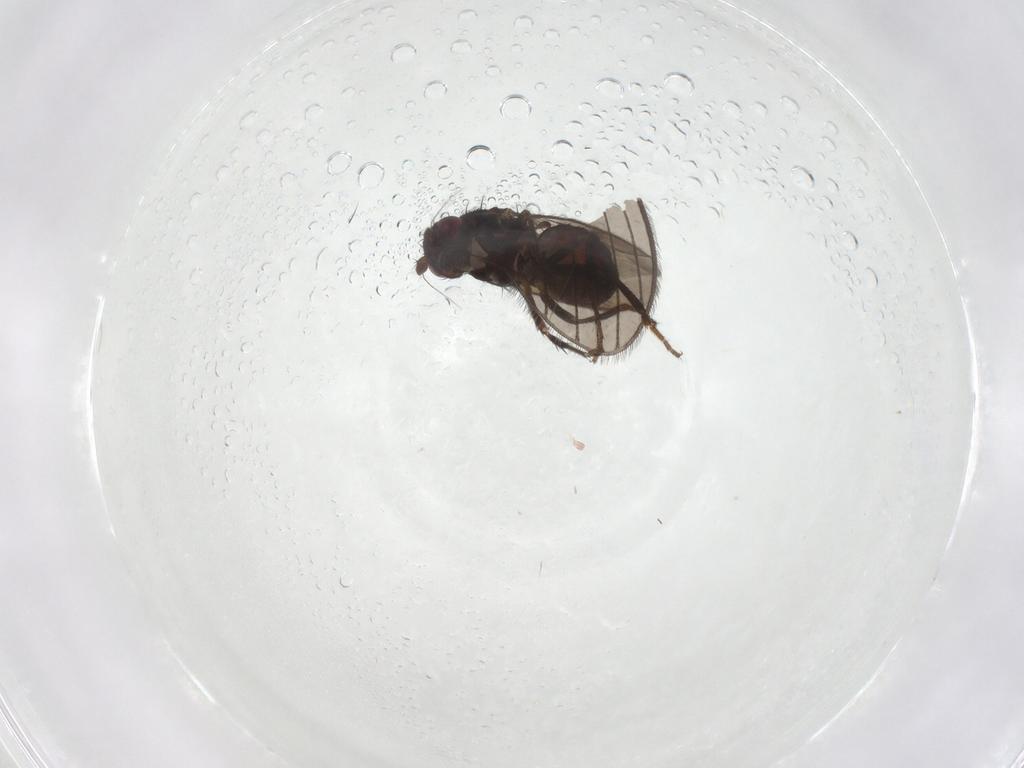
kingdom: Animalia
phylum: Arthropoda
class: Insecta
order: Diptera
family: Sphaeroceridae
